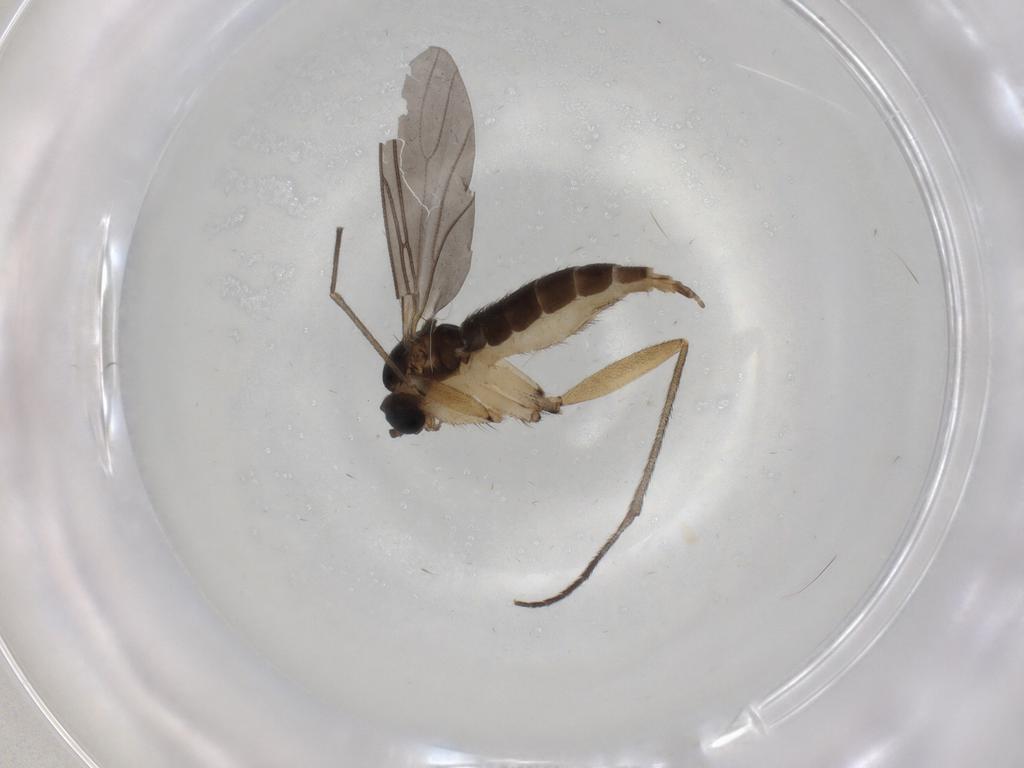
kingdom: Animalia
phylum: Arthropoda
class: Insecta
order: Diptera
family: Sciaridae
